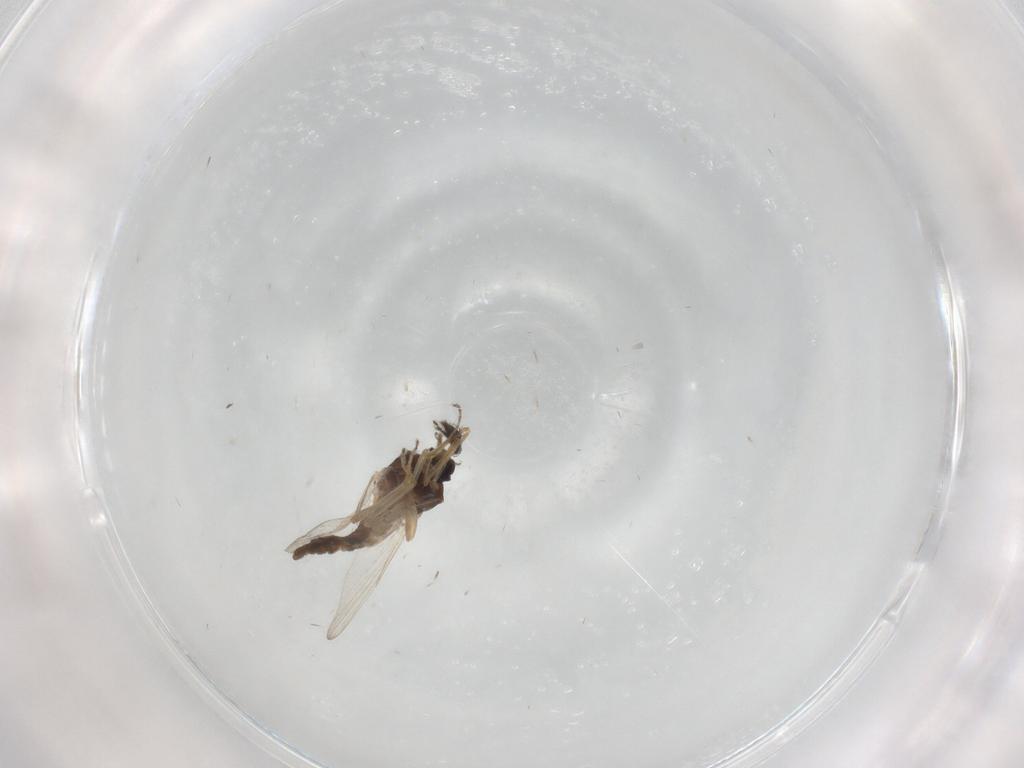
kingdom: Animalia
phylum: Arthropoda
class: Insecta
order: Diptera
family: Ceratopogonidae
